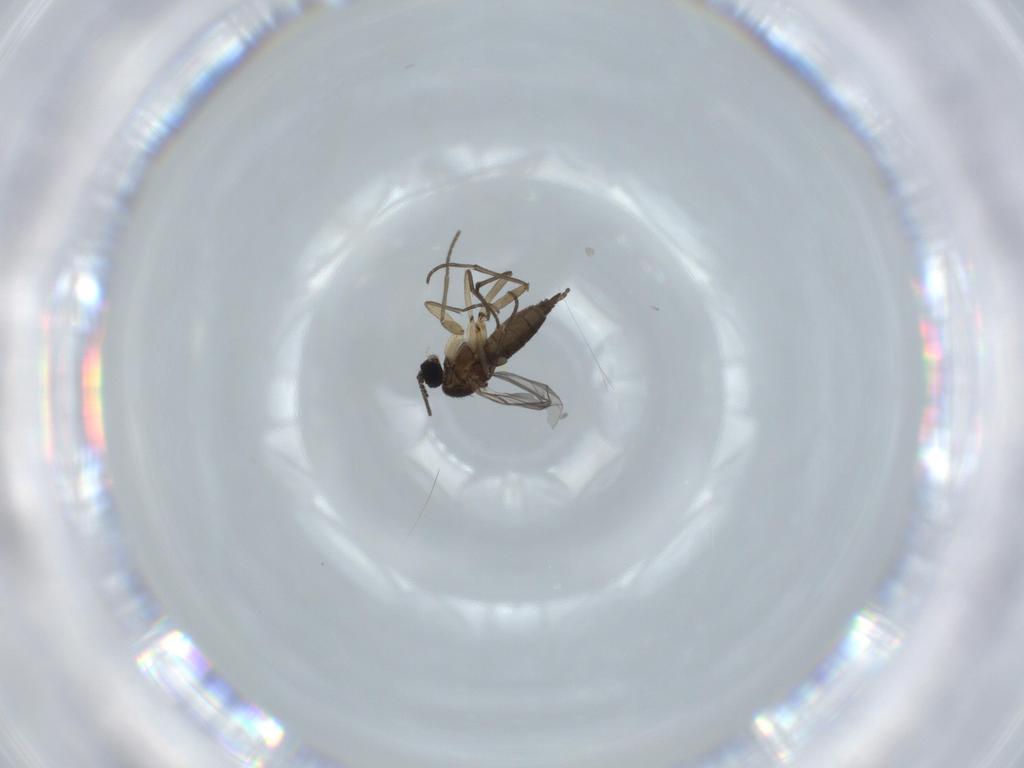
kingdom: Animalia
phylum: Arthropoda
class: Insecta
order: Diptera
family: Sciaridae
